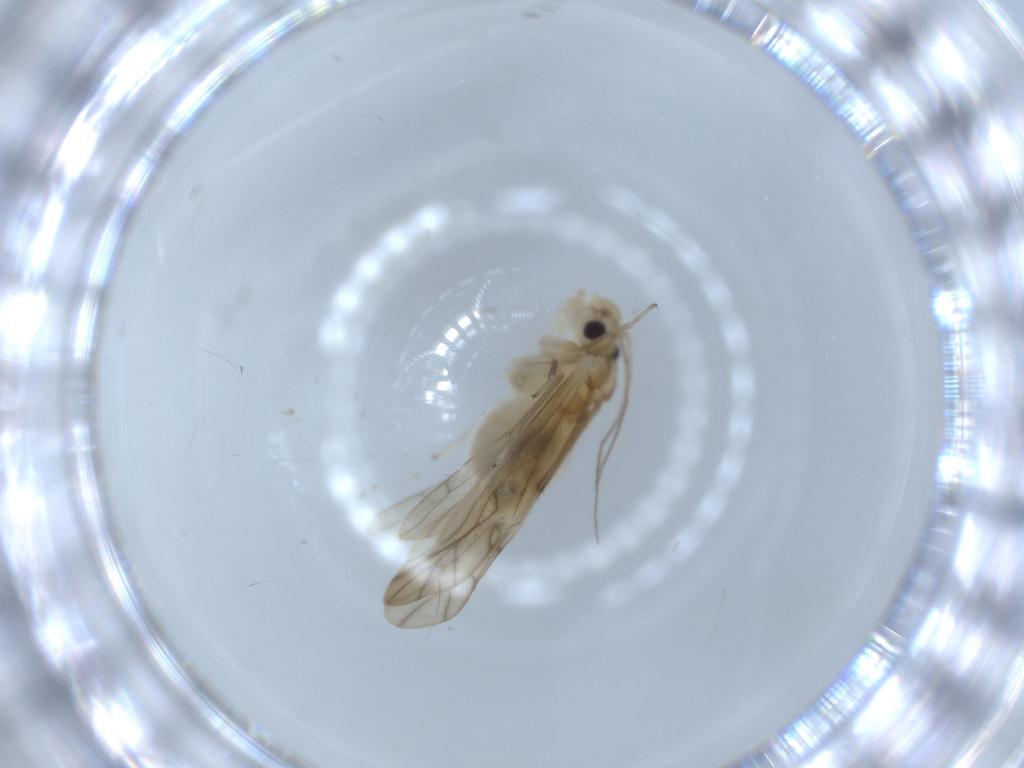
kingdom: Animalia
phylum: Arthropoda
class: Insecta
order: Psocodea
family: Caeciliusidae
